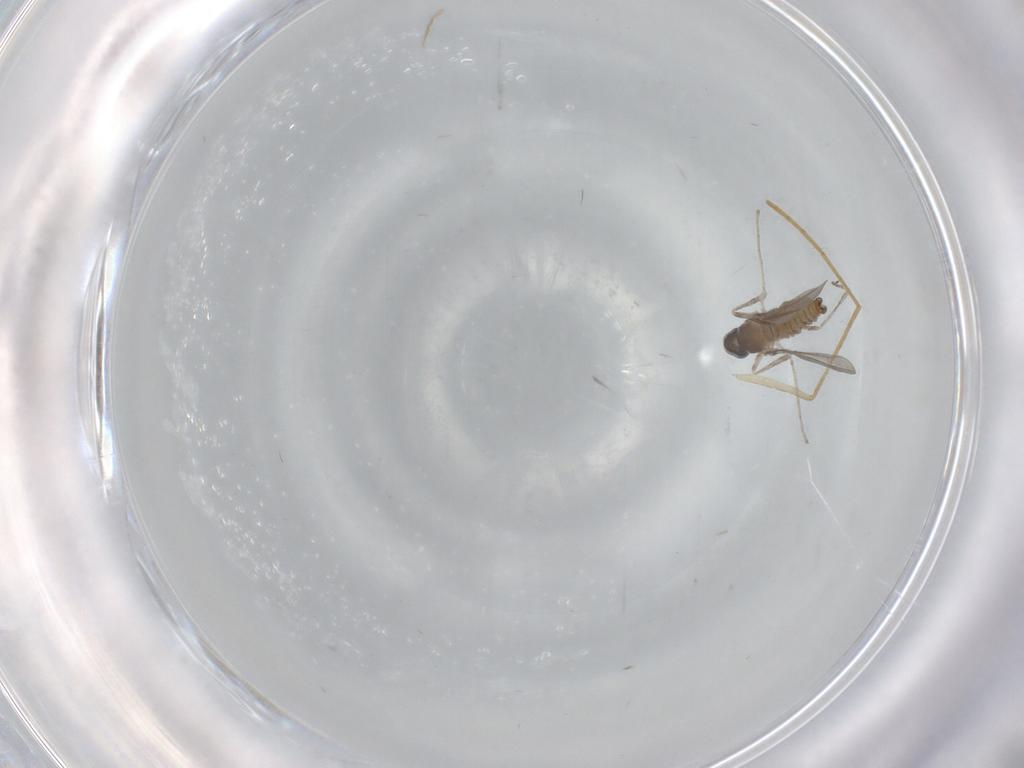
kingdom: Animalia
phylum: Arthropoda
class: Insecta
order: Diptera
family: Cecidomyiidae
